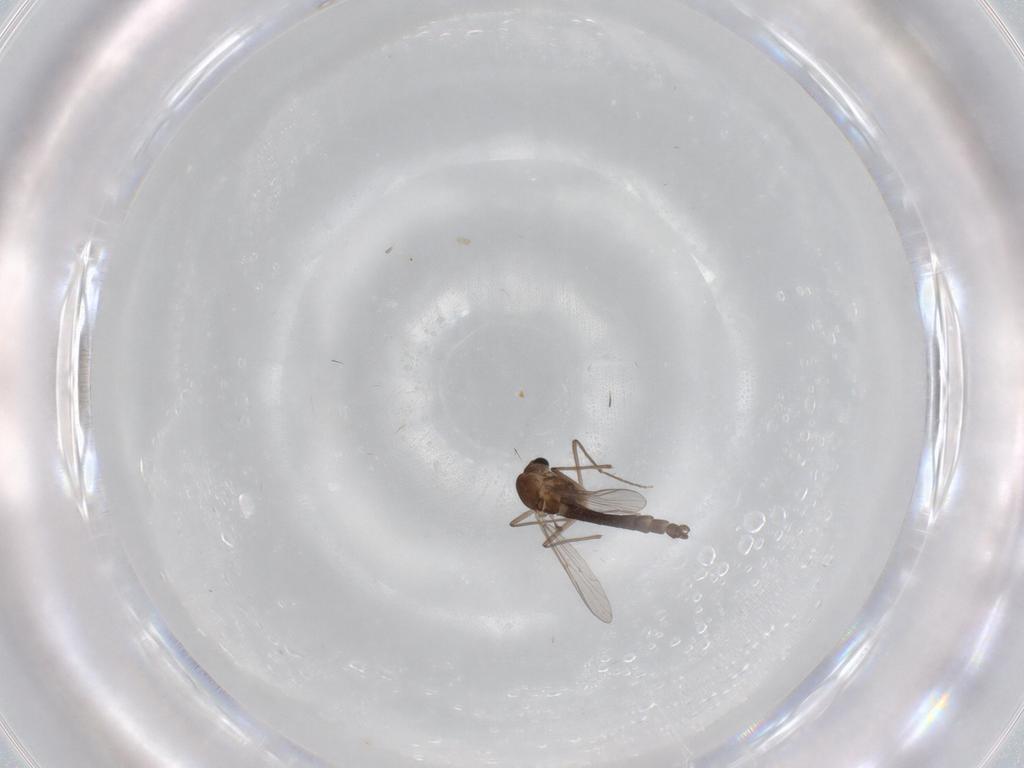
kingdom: Animalia
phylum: Arthropoda
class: Insecta
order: Diptera
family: Chironomidae
